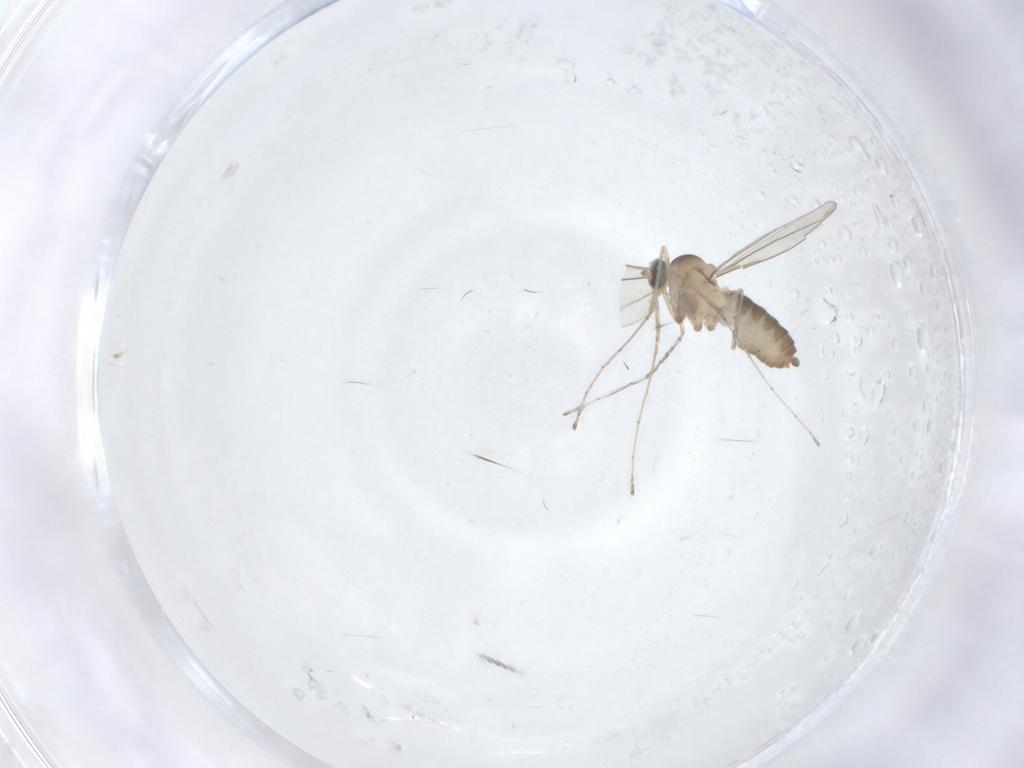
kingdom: Animalia
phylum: Arthropoda
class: Insecta
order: Diptera
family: Cecidomyiidae
